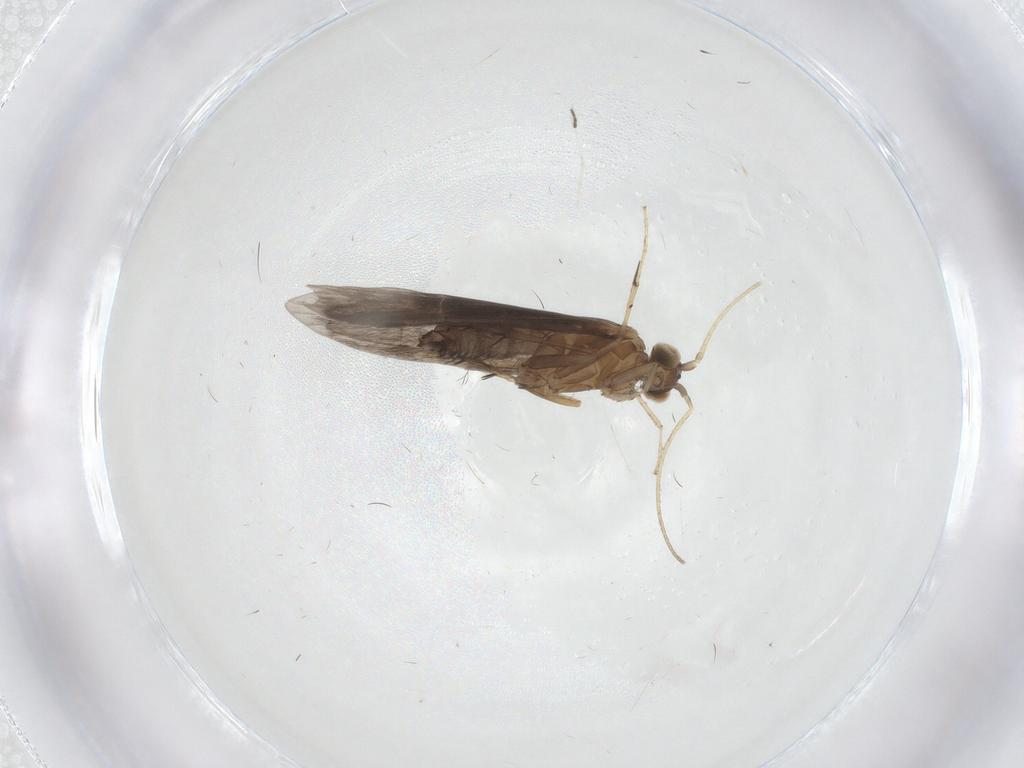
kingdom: Animalia
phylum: Arthropoda
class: Insecta
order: Trichoptera
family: Glossosomatidae
